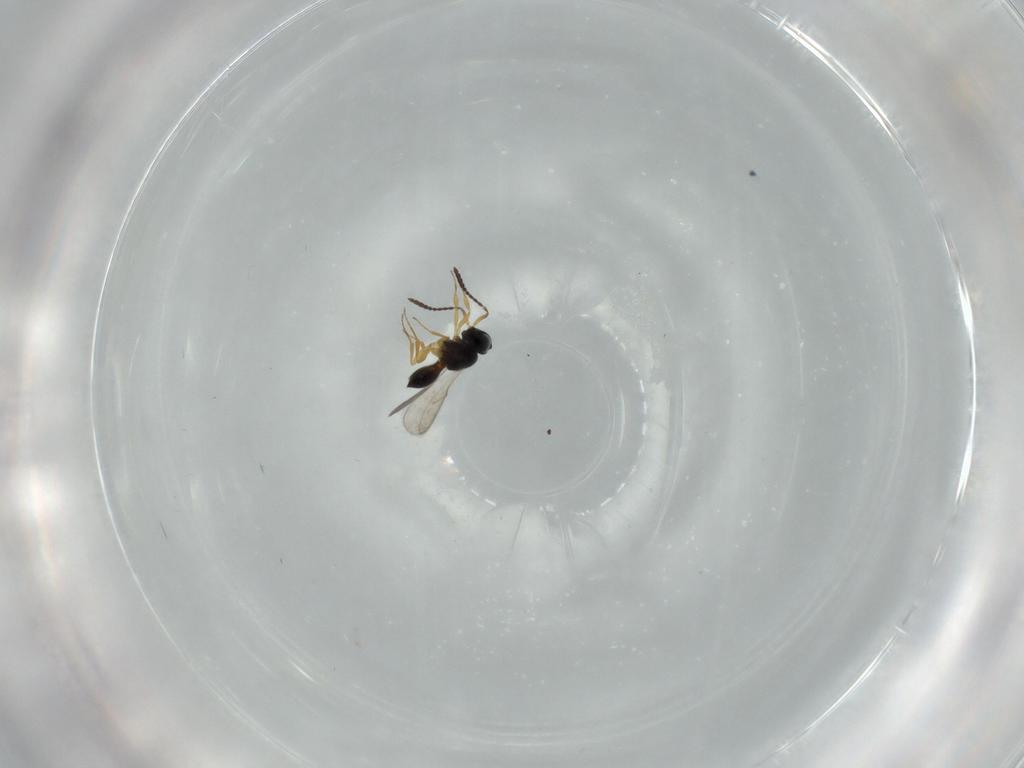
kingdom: Animalia
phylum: Arthropoda
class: Insecta
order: Hymenoptera
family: Scelionidae
